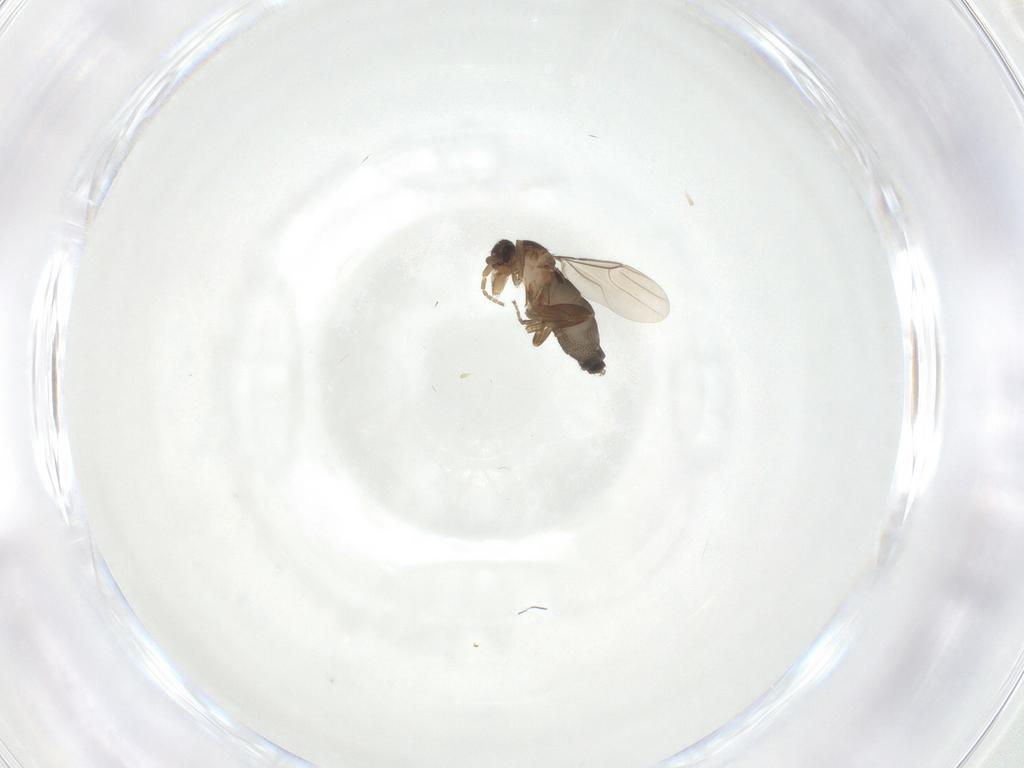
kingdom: Animalia
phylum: Arthropoda
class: Insecta
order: Diptera
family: Phoridae
